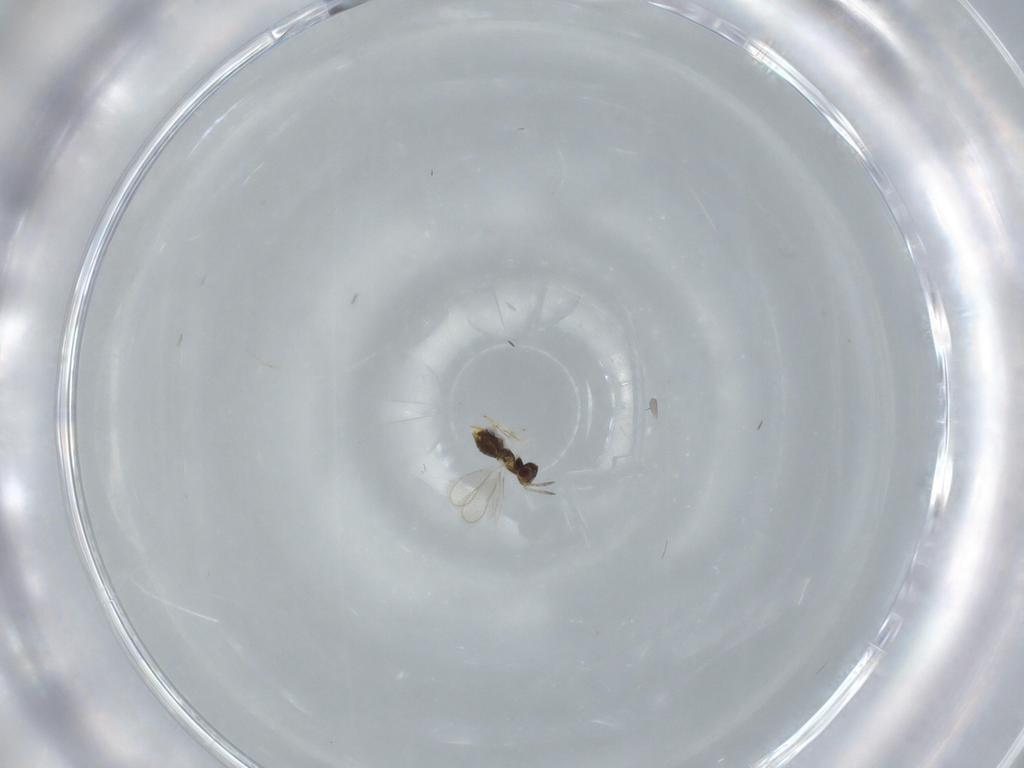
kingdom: Animalia
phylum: Arthropoda
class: Insecta
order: Hymenoptera
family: Aphelinidae
